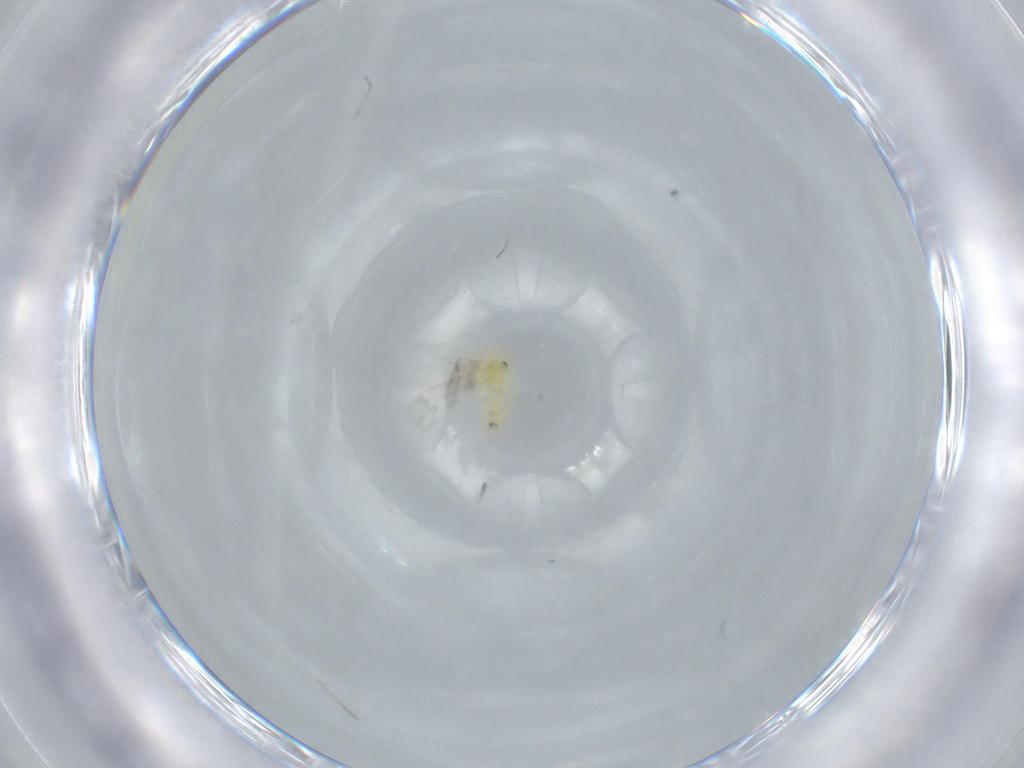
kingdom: Animalia
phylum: Arthropoda
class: Insecta
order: Hemiptera
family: Aleyrodidae
